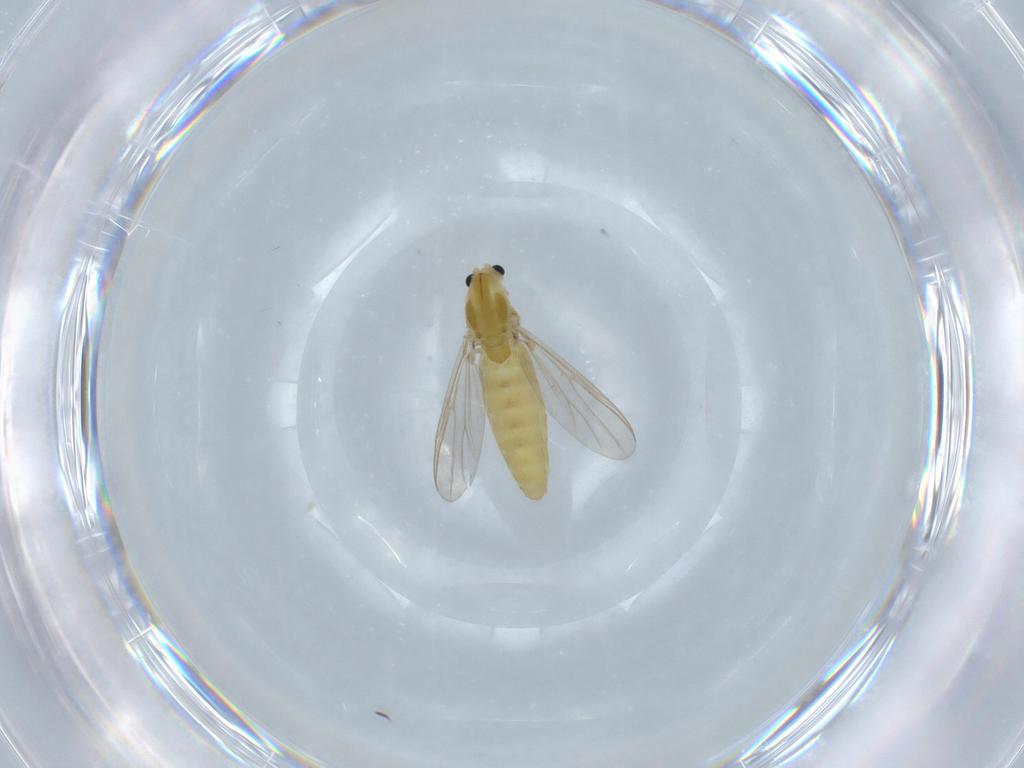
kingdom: Animalia
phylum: Arthropoda
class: Insecta
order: Diptera
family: Chironomidae
